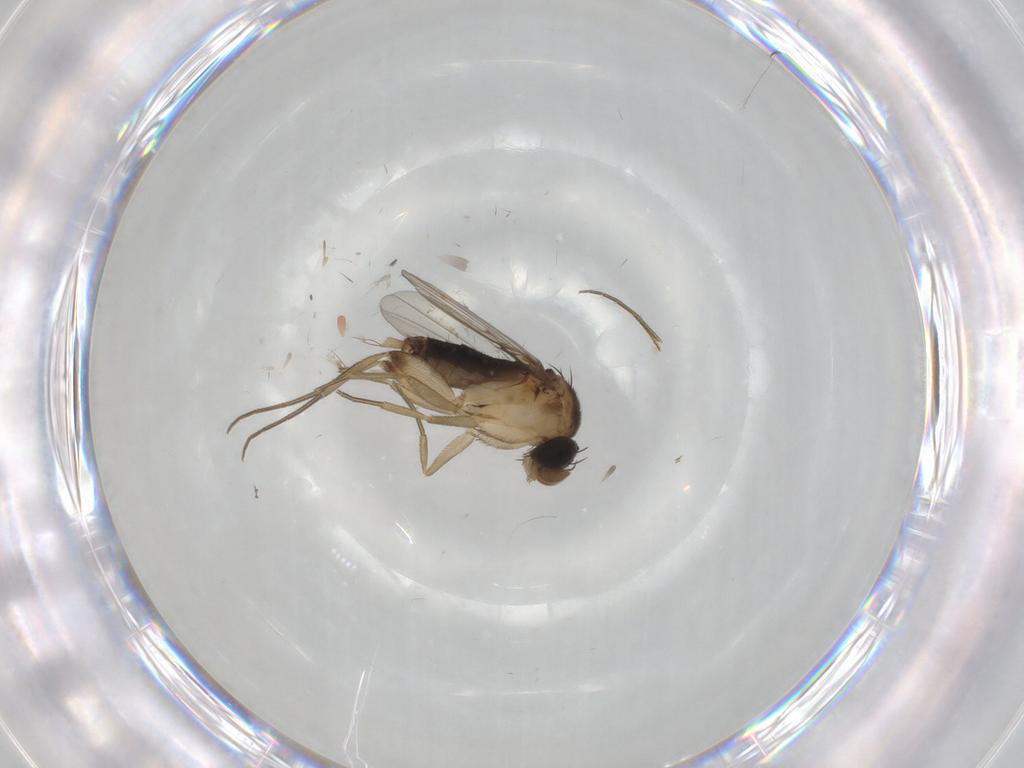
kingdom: Animalia
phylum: Arthropoda
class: Insecta
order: Diptera
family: Phoridae
